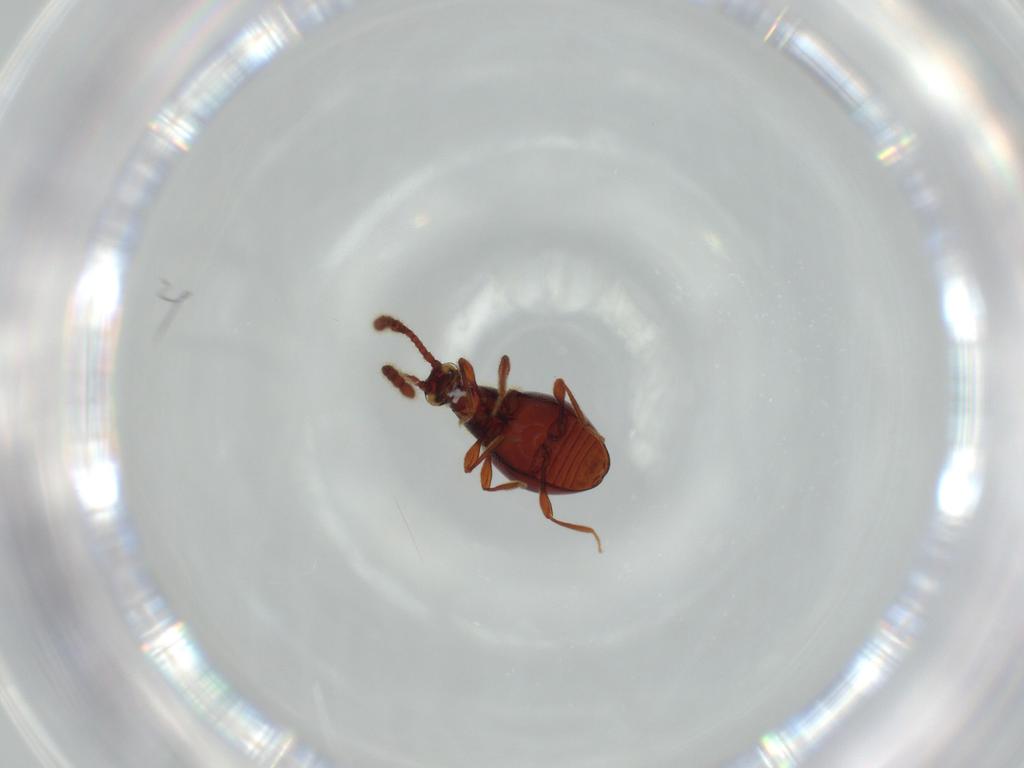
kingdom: Animalia
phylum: Arthropoda
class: Insecta
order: Coleoptera
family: Staphylinidae
